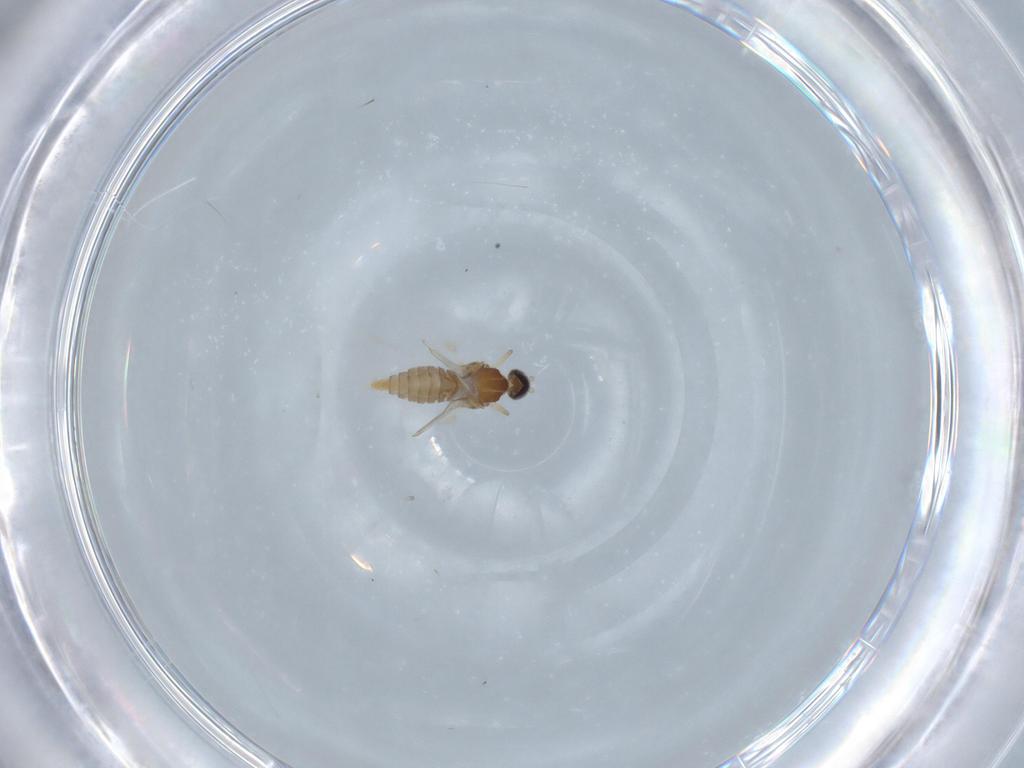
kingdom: Animalia
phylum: Arthropoda
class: Insecta
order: Diptera
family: Cecidomyiidae
